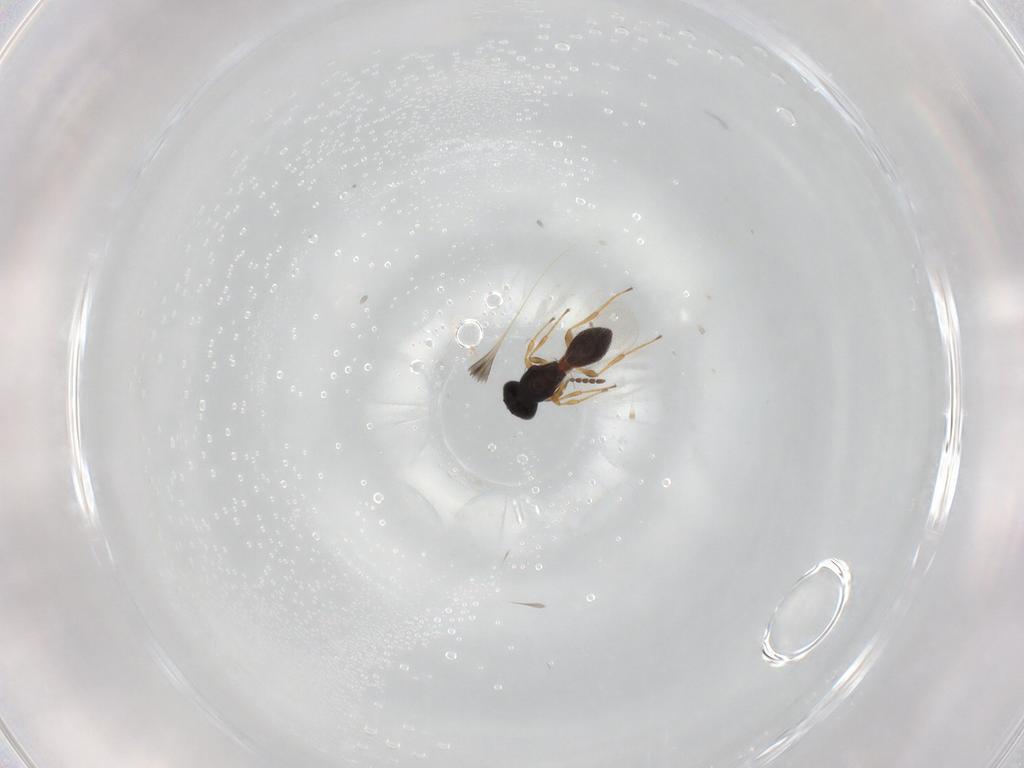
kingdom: Animalia
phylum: Arthropoda
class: Insecta
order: Hymenoptera
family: Platygastridae
